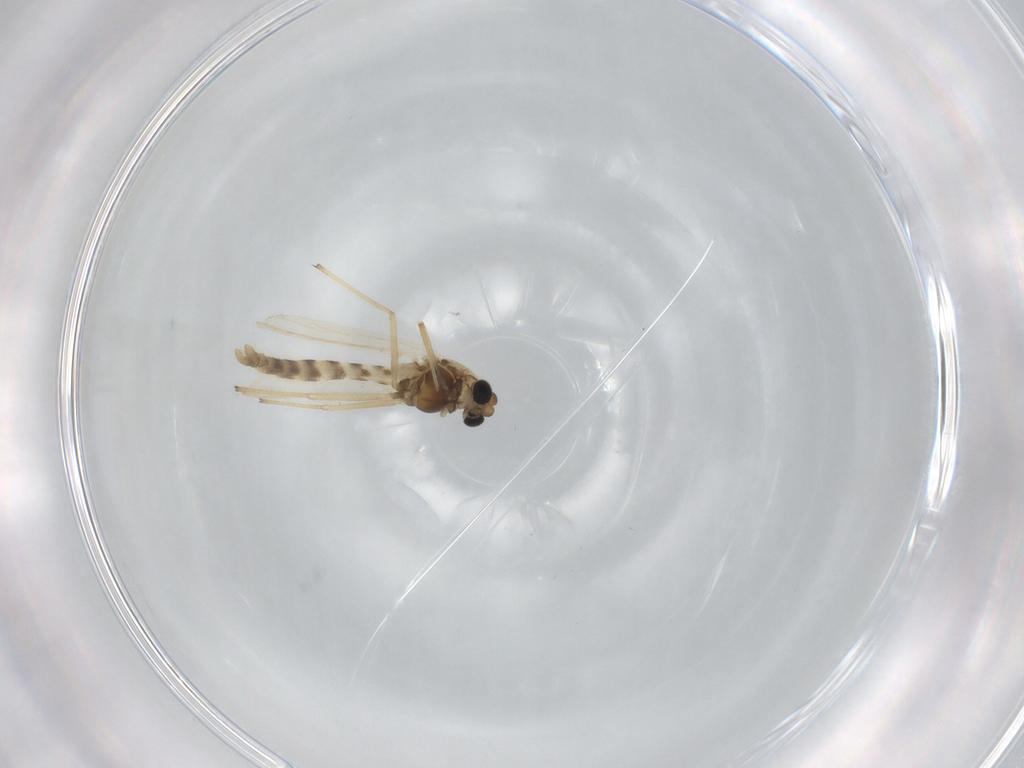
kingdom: Animalia
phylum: Arthropoda
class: Insecta
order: Diptera
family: Chironomidae
